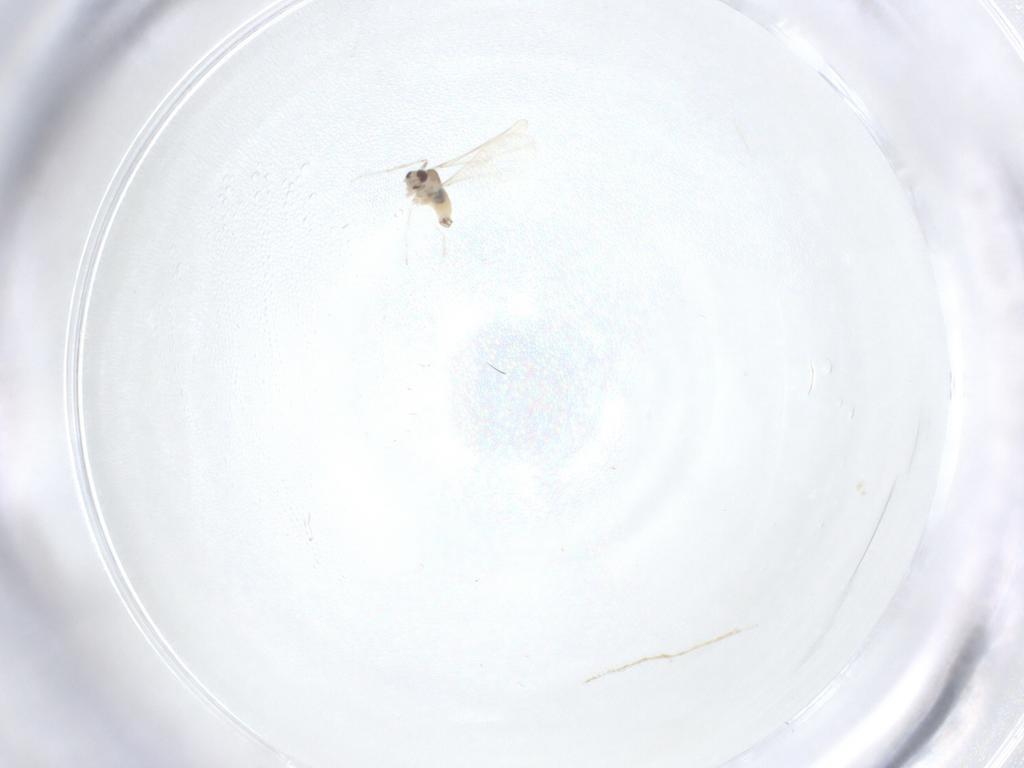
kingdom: Animalia
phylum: Arthropoda
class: Insecta
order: Diptera
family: Cecidomyiidae
